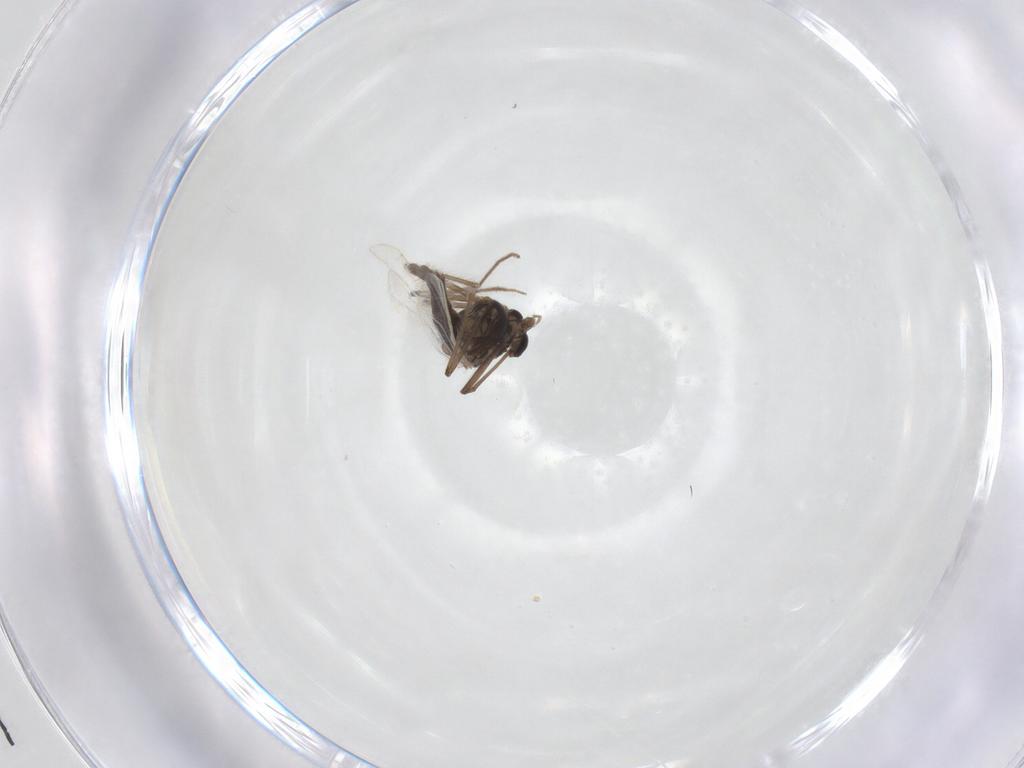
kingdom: Animalia
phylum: Arthropoda
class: Insecta
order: Diptera
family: Chironomidae
